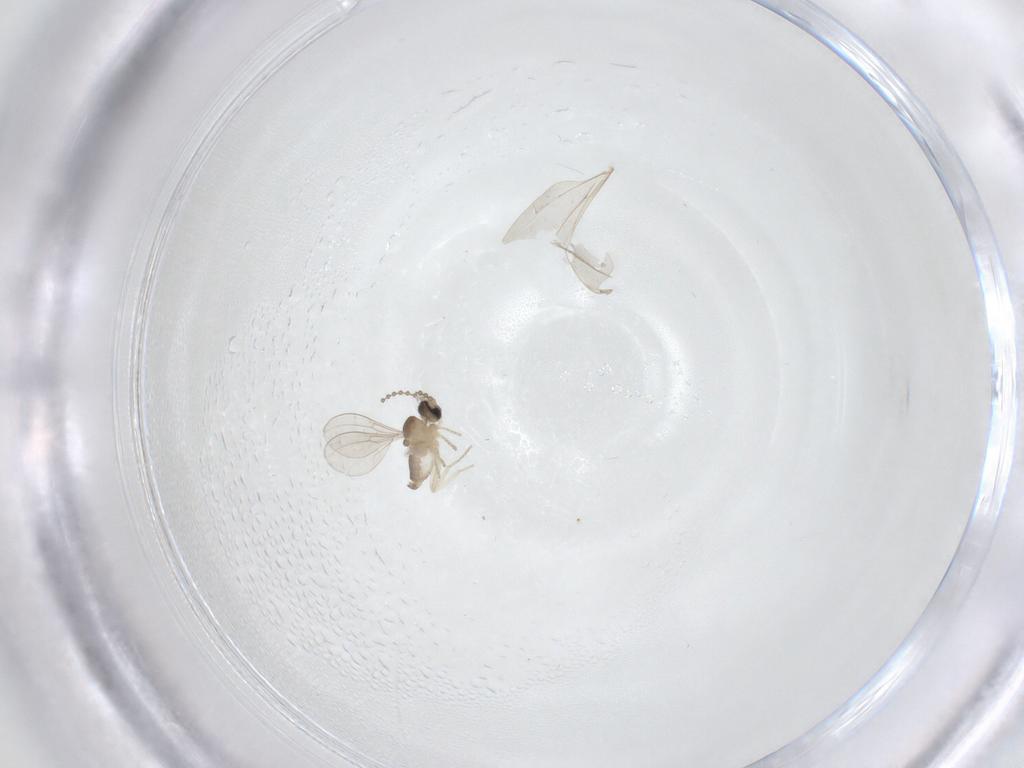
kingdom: Animalia
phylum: Arthropoda
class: Insecta
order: Diptera
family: Cecidomyiidae
